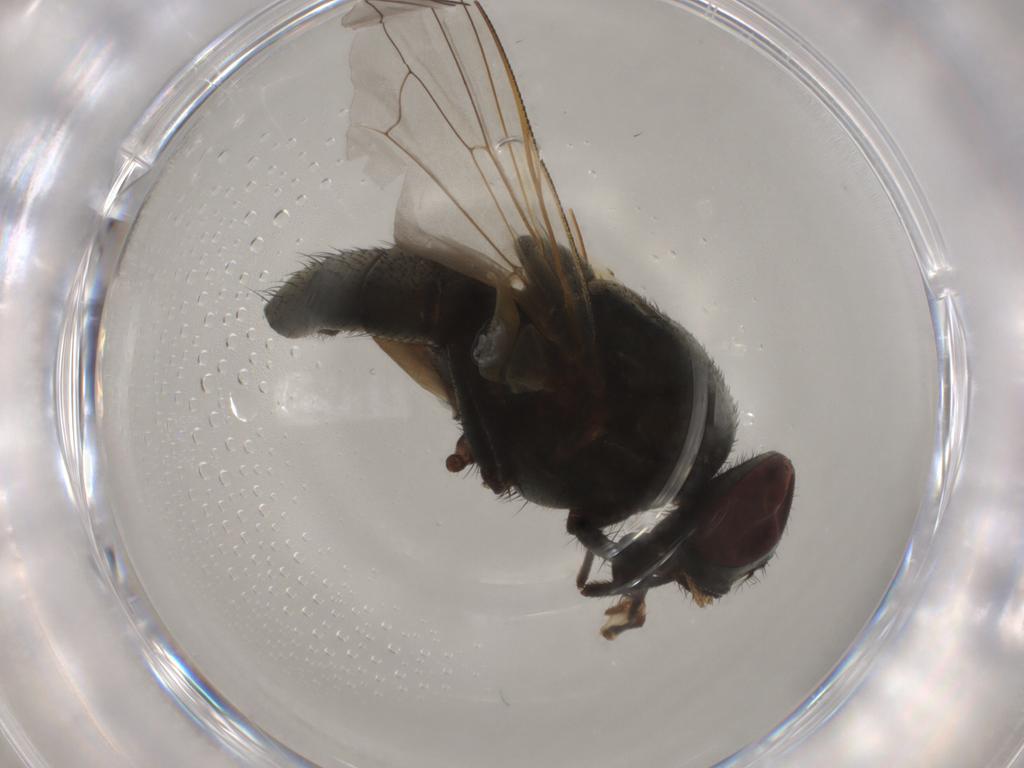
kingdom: Animalia
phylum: Arthropoda
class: Insecta
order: Diptera
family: Muscidae
